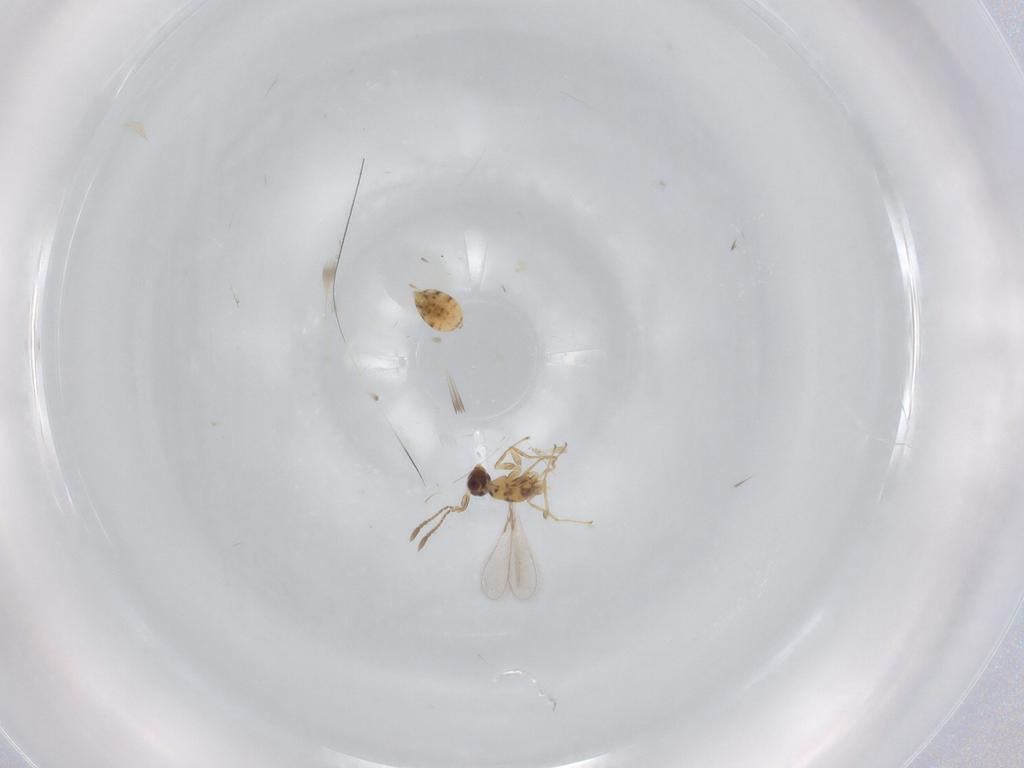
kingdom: Animalia
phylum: Arthropoda
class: Insecta
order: Hymenoptera
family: Mymaridae
